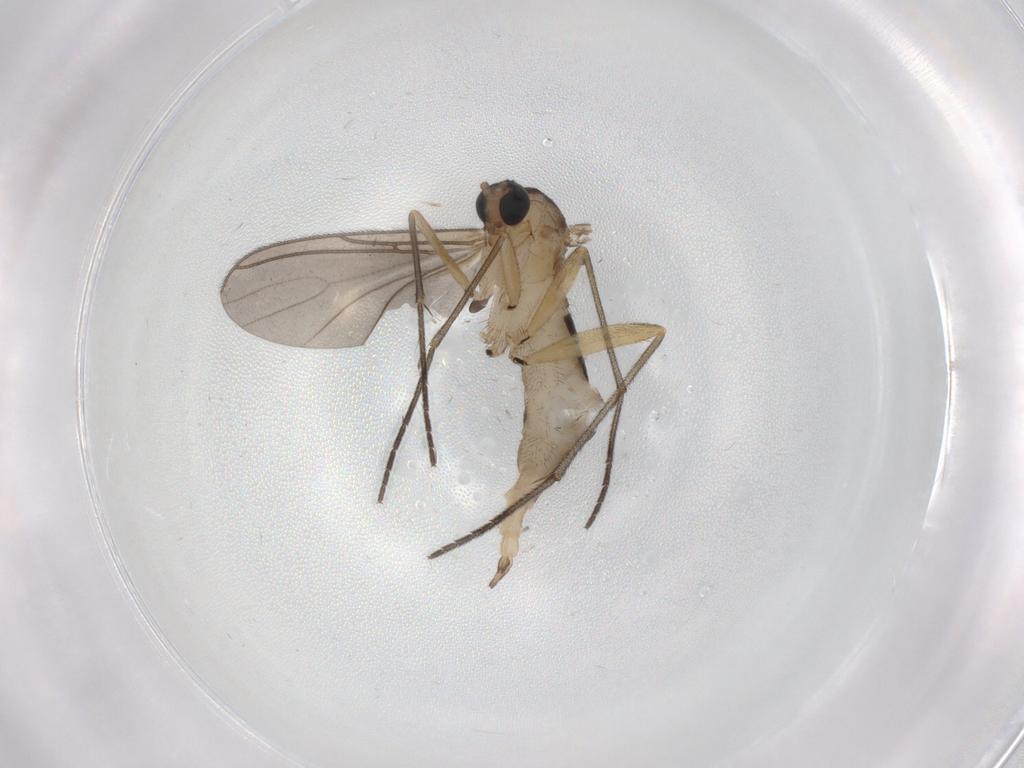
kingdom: Animalia
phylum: Arthropoda
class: Insecta
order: Diptera
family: Sciaridae
